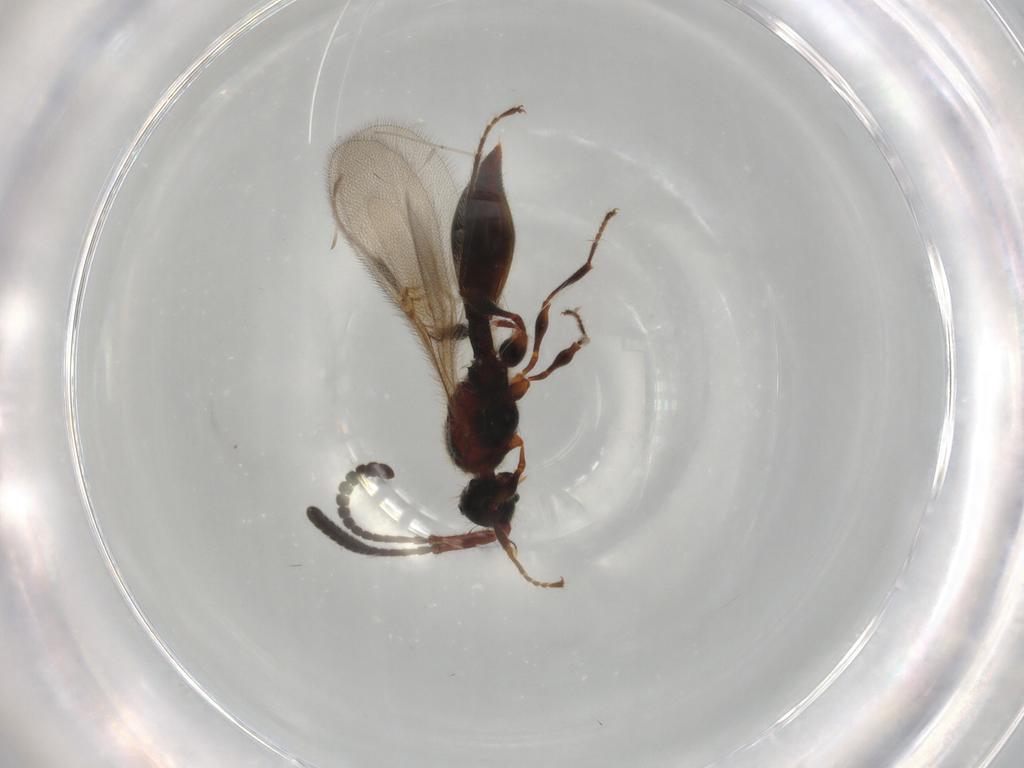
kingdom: Animalia
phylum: Arthropoda
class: Insecta
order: Hymenoptera
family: Diapriidae
